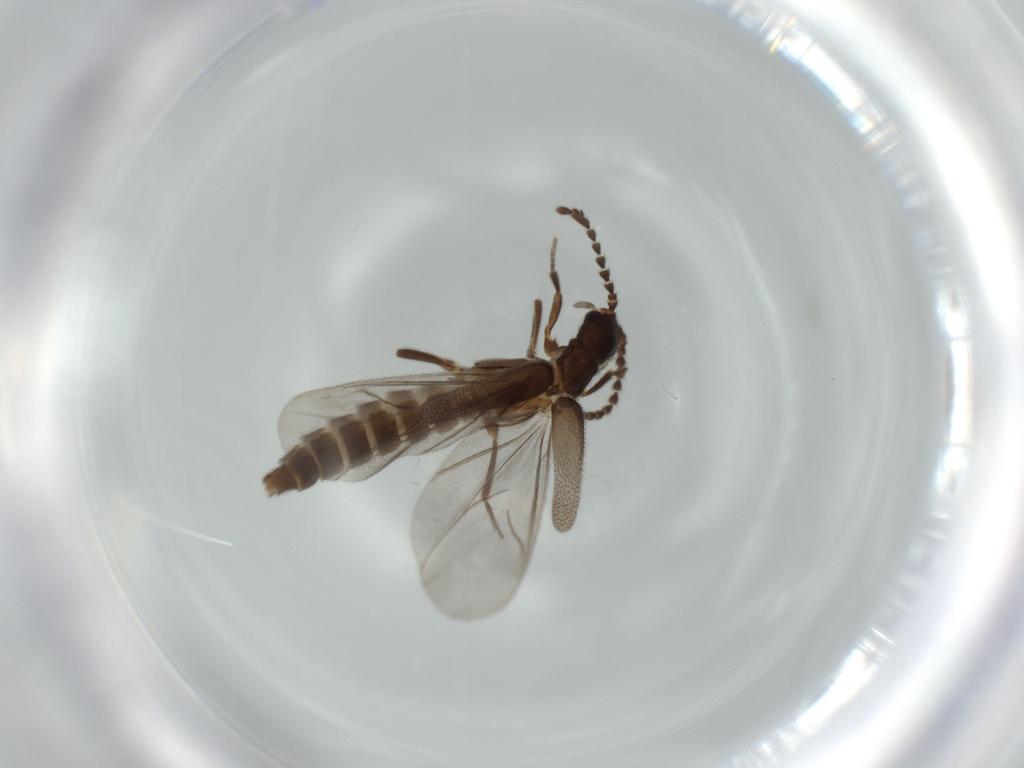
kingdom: Animalia
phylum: Arthropoda
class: Insecta
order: Coleoptera
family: Omethidae
